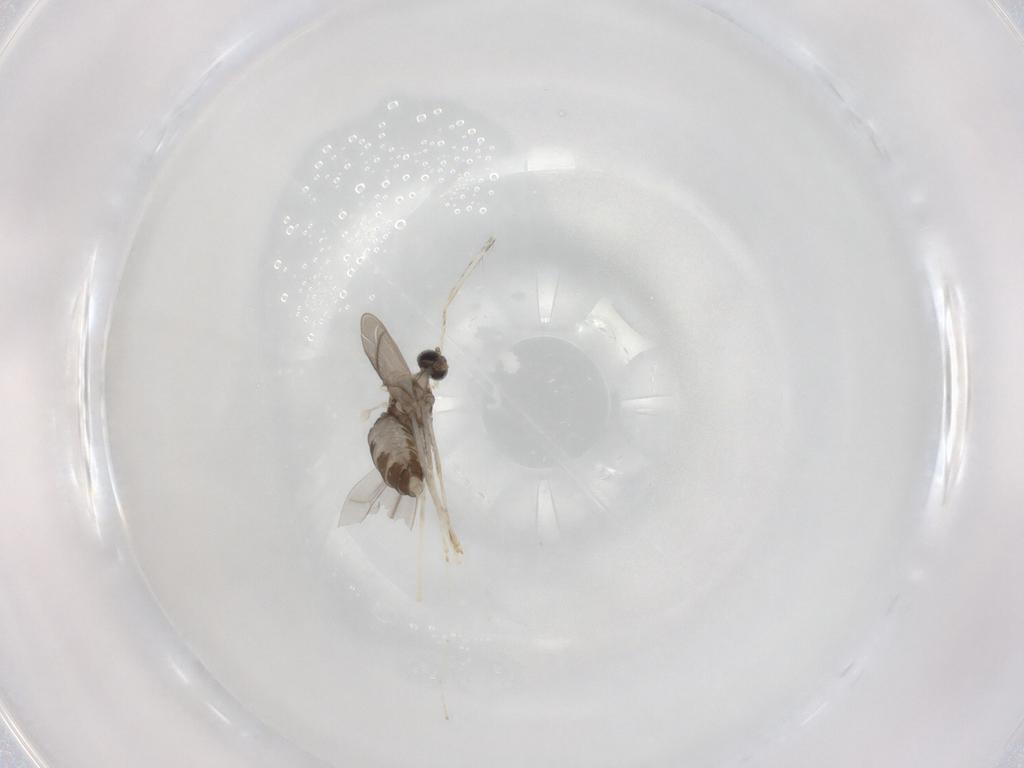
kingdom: Animalia
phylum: Arthropoda
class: Insecta
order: Diptera
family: Cecidomyiidae
